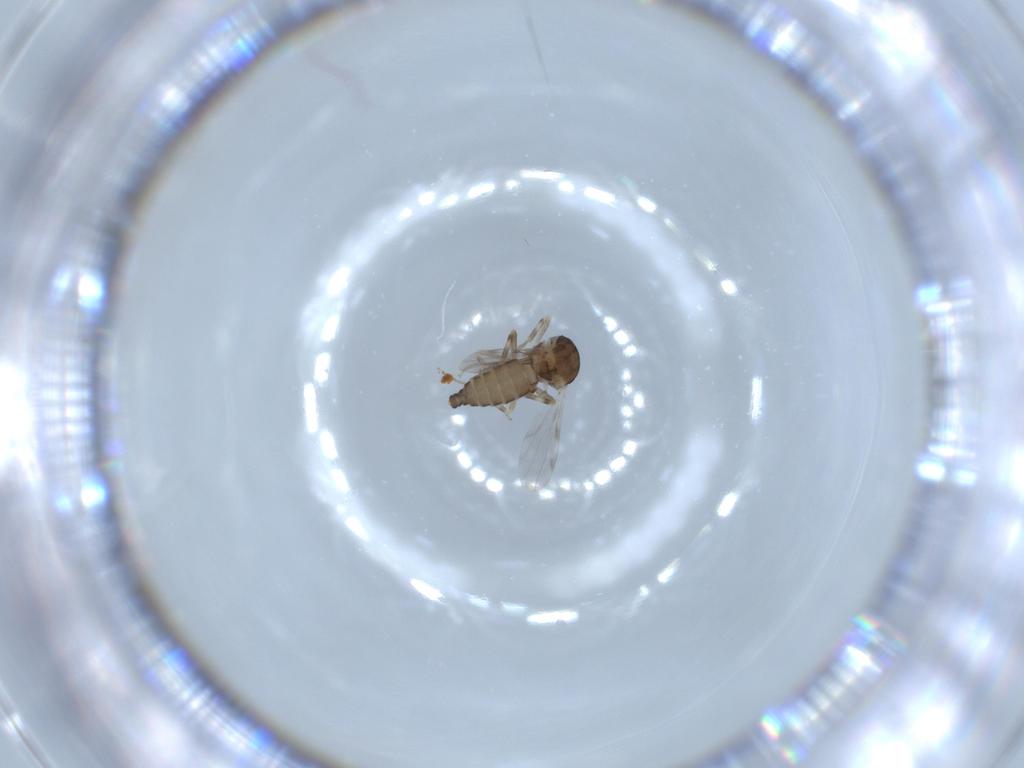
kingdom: Animalia
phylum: Arthropoda
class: Insecta
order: Diptera
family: Ceratopogonidae
